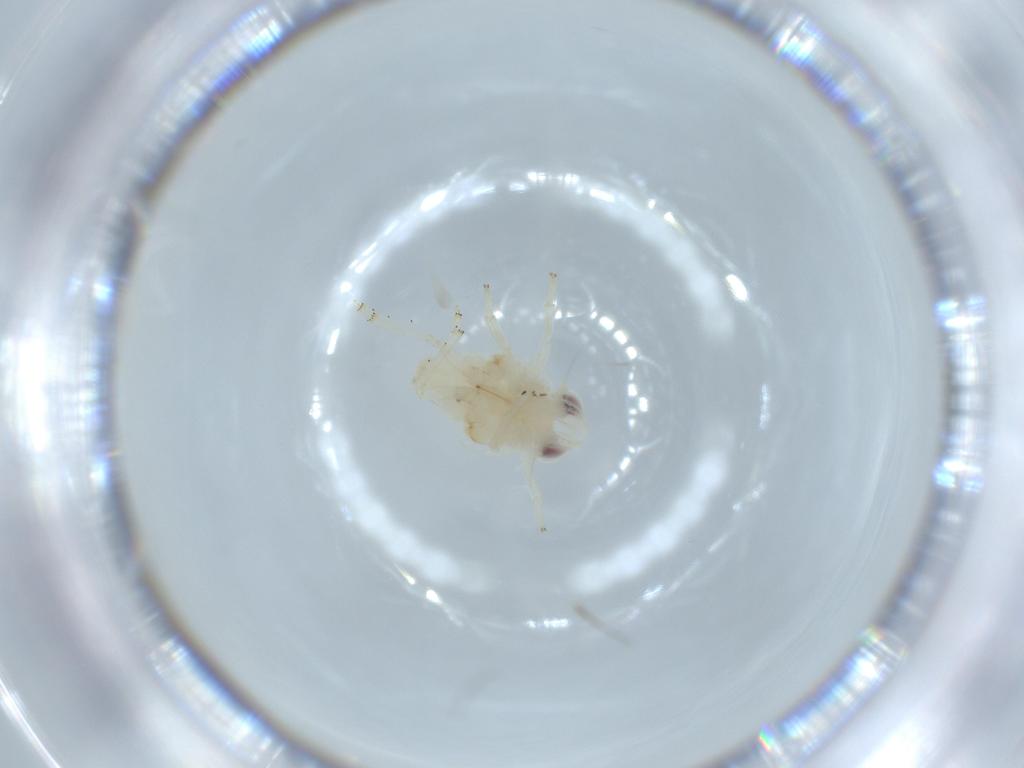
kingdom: Animalia
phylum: Arthropoda
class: Insecta
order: Hemiptera
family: Nogodinidae
